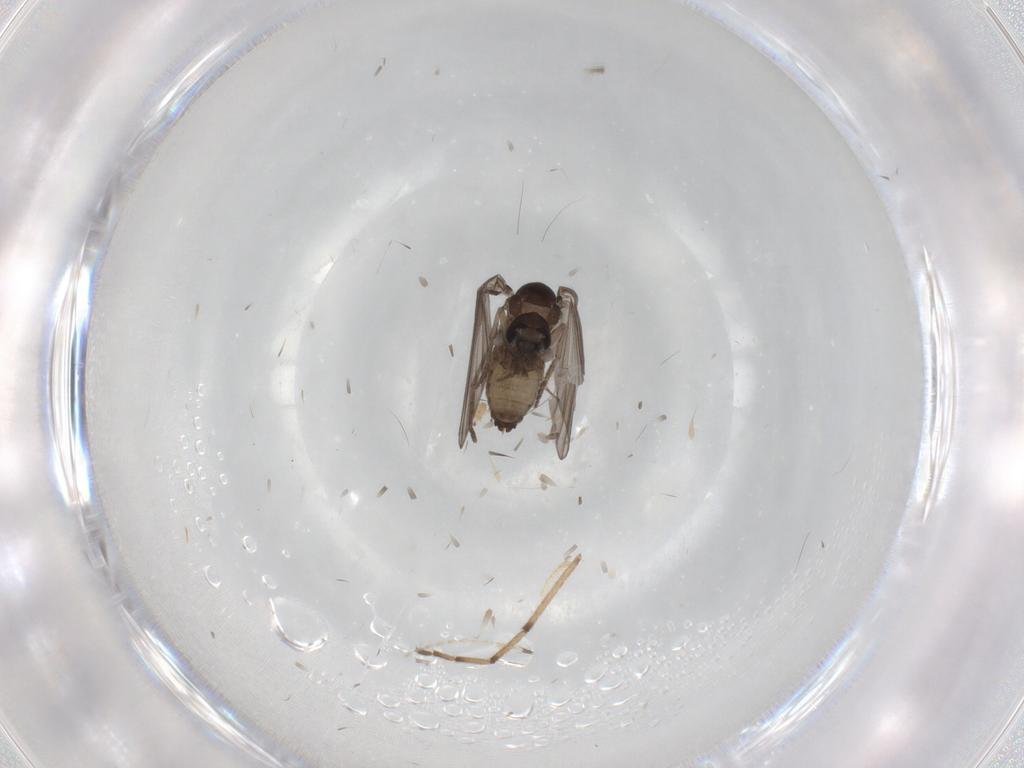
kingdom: Animalia
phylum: Arthropoda
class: Insecta
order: Diptera
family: Psychodidae
